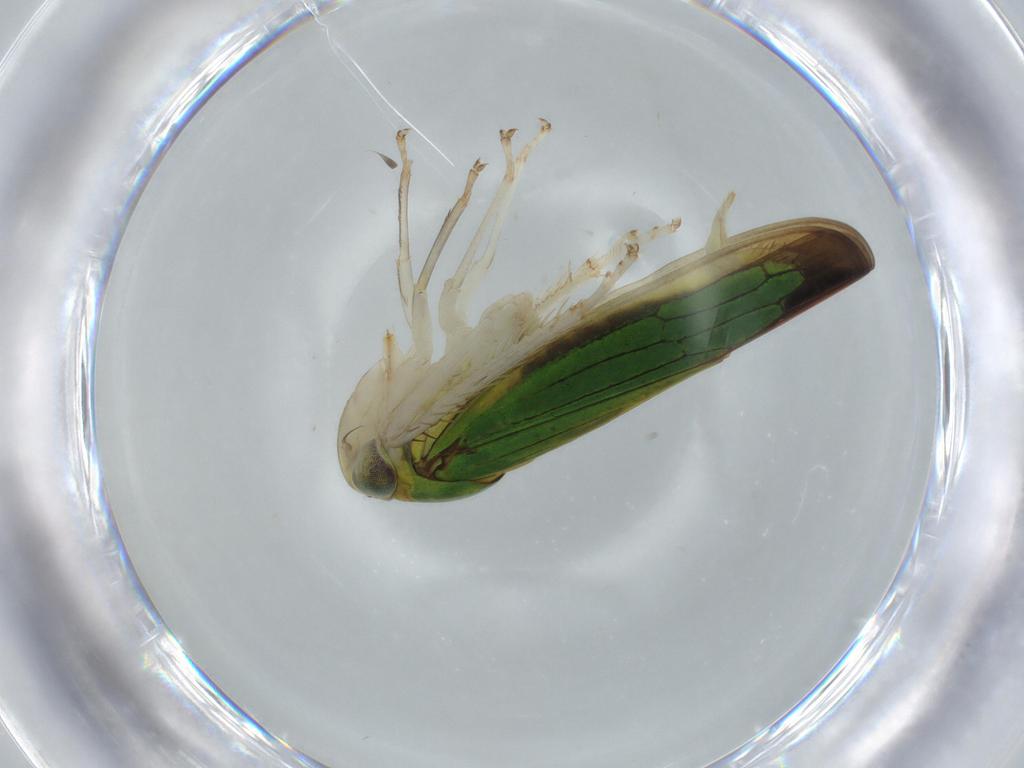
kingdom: Animalia
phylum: Arthropoda
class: Insecta
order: Hemiptera
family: Cicadellidae
